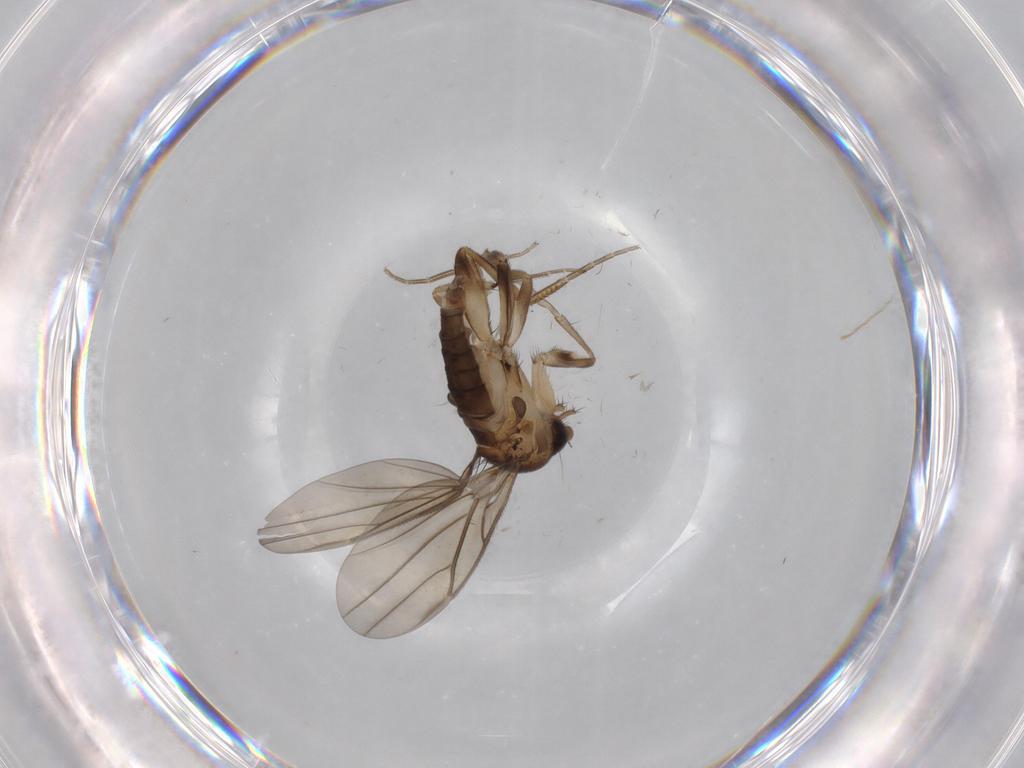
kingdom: Animalia
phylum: Arthropoda
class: Insecta
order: Diptera
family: Phoridae
